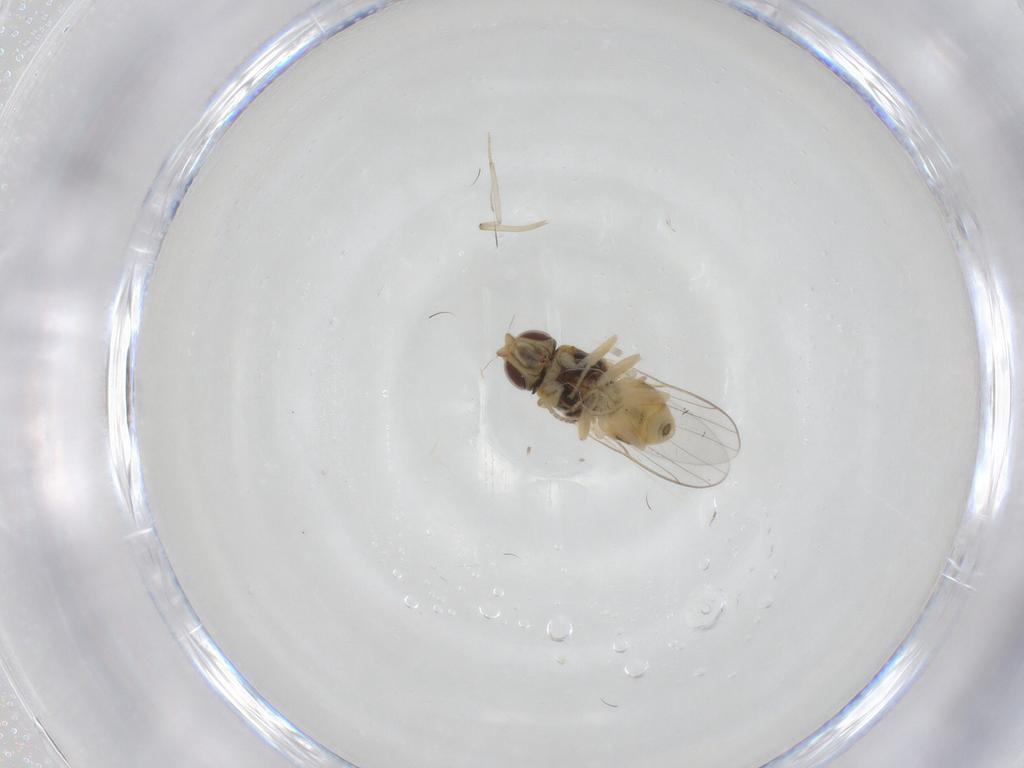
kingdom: Animalia
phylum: Arthropoda
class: Insecta
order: Diptera
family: Chloropidae
